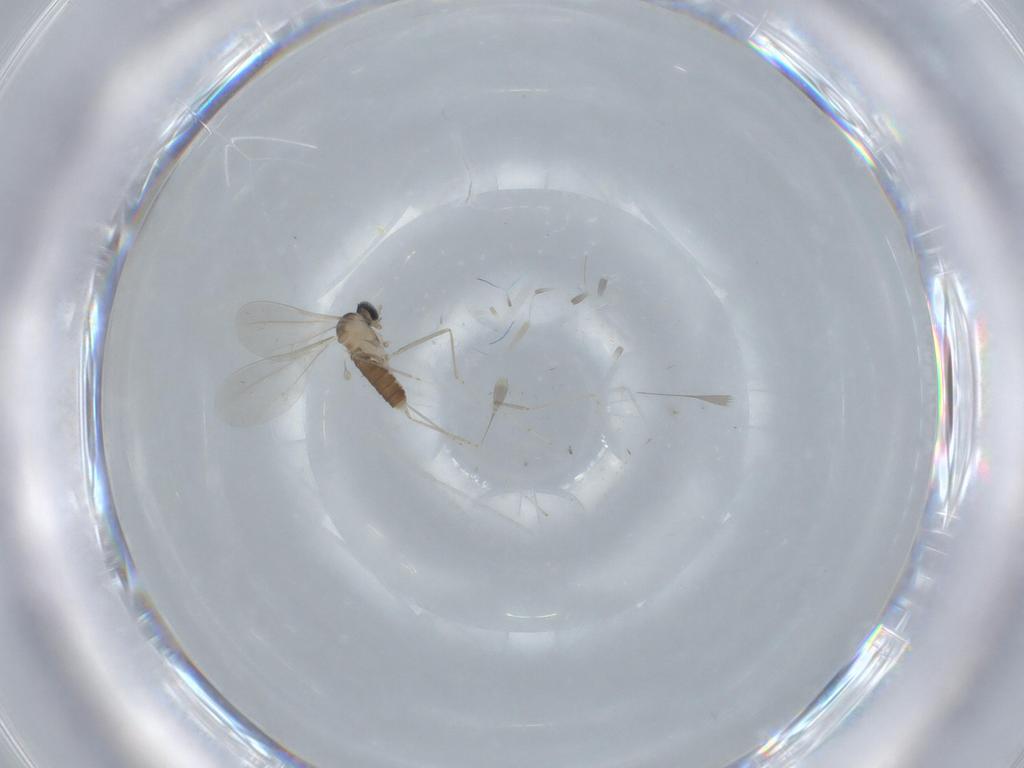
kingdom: Animalia
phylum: Arthropoda
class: Insecta
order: Diptera
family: Cecidomyiidae
